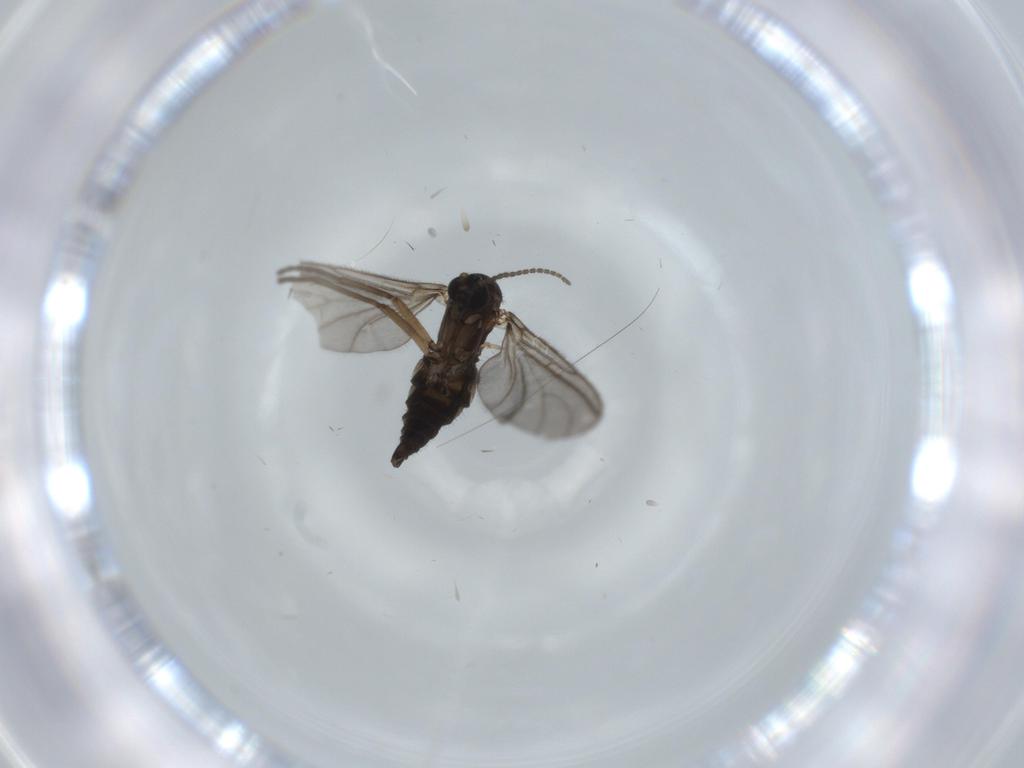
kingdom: Animalia
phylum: Arthropoda
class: Insecta
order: Diptera
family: Sciaridae
